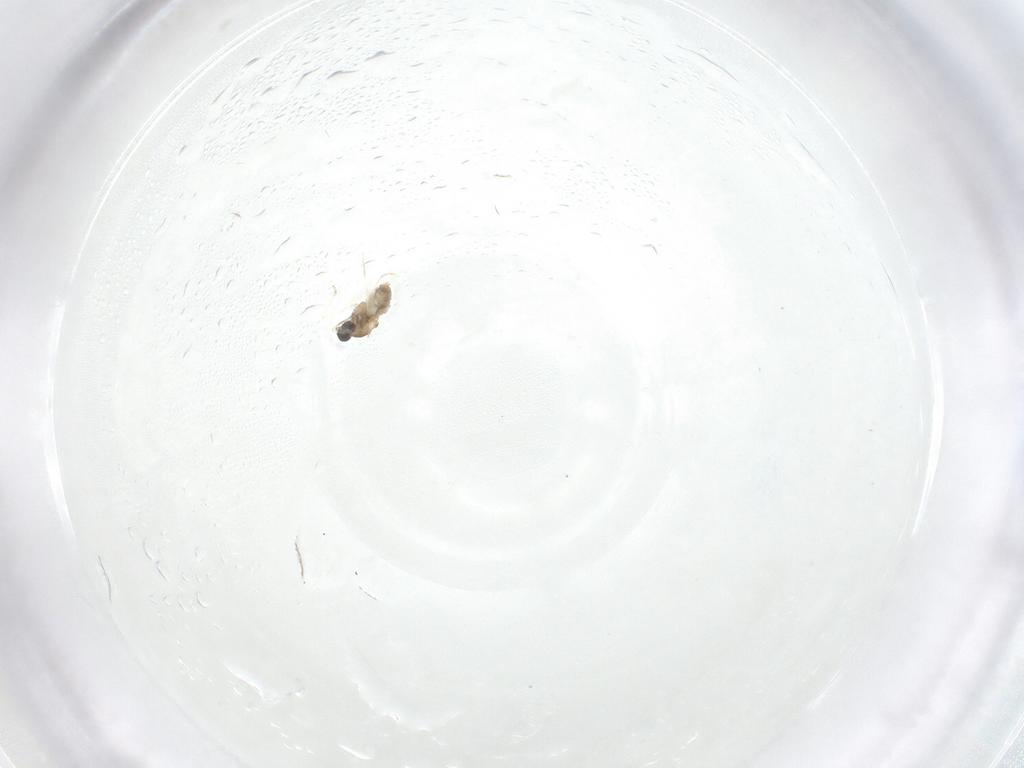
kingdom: Animalia
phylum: Arthropoda
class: Insecta
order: Diptera
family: Cecidomyiidae
